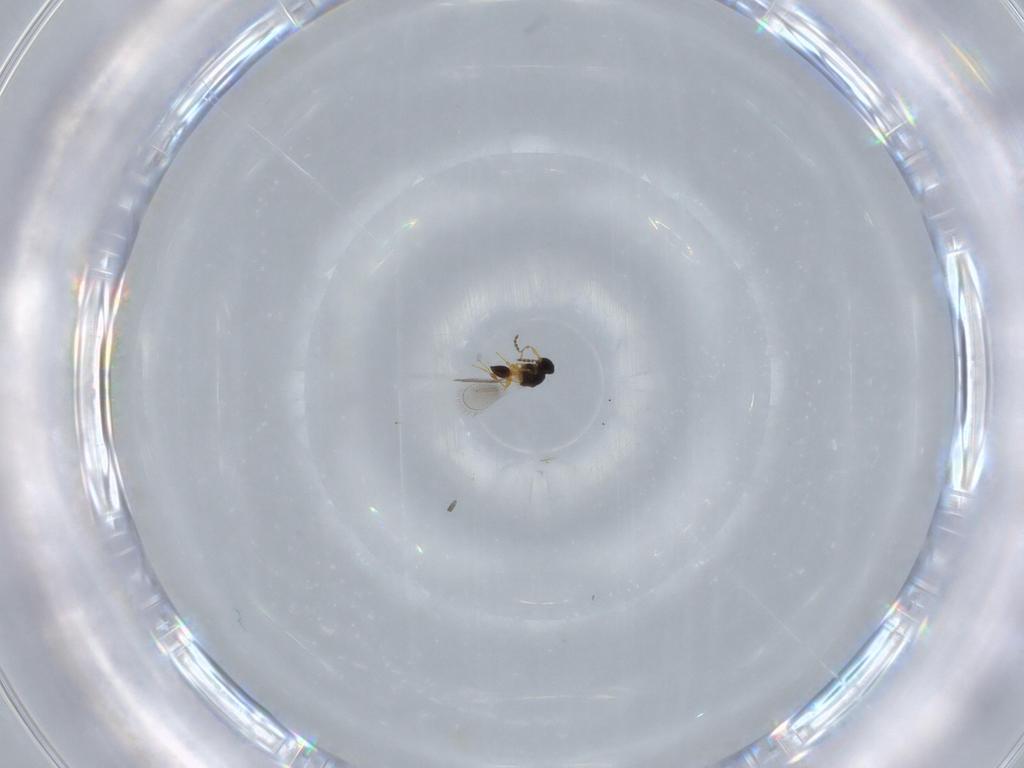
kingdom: Animalia
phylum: Arthropoda
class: Insecta
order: Hymenoptera
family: Platygastridae
